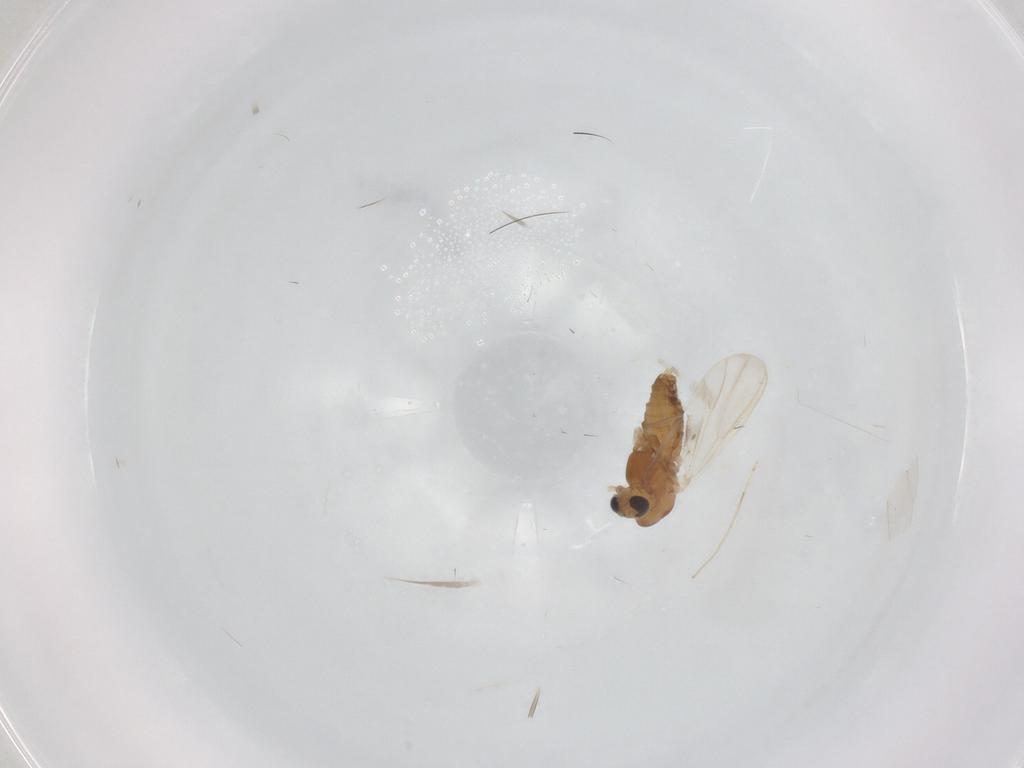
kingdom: Animalia
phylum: Arthropoda
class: Insecta
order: Diptera
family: Chironomidae
